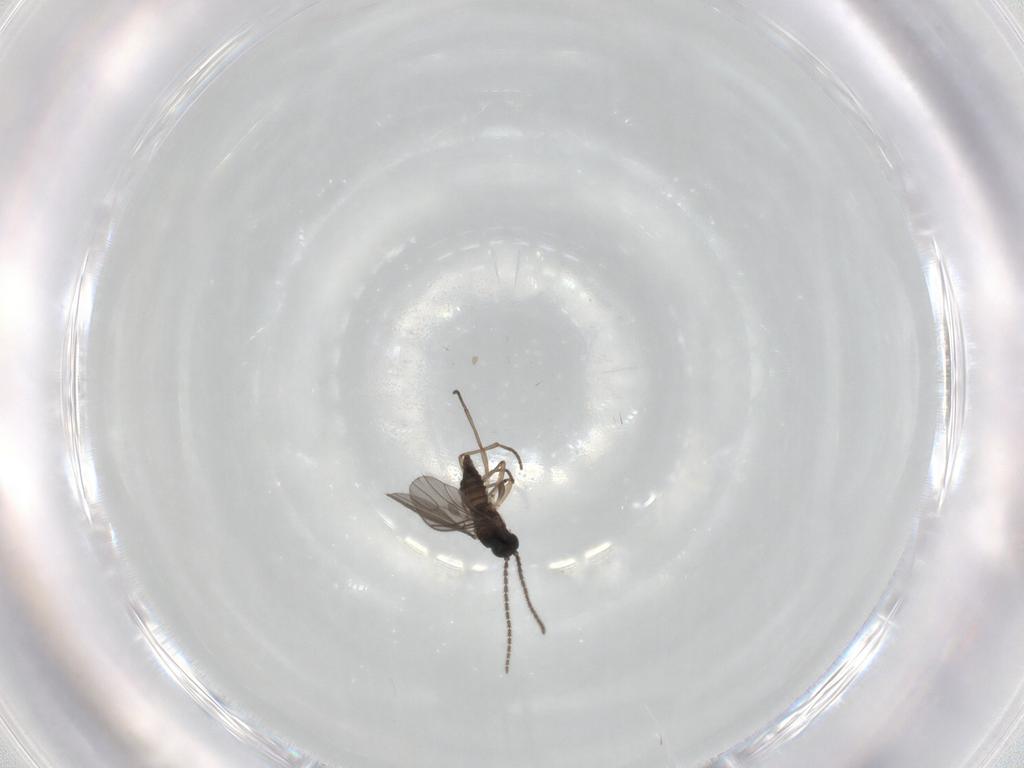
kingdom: Animalia
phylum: Arthropoda
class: Insecta
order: Diptera
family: Sciaridae
